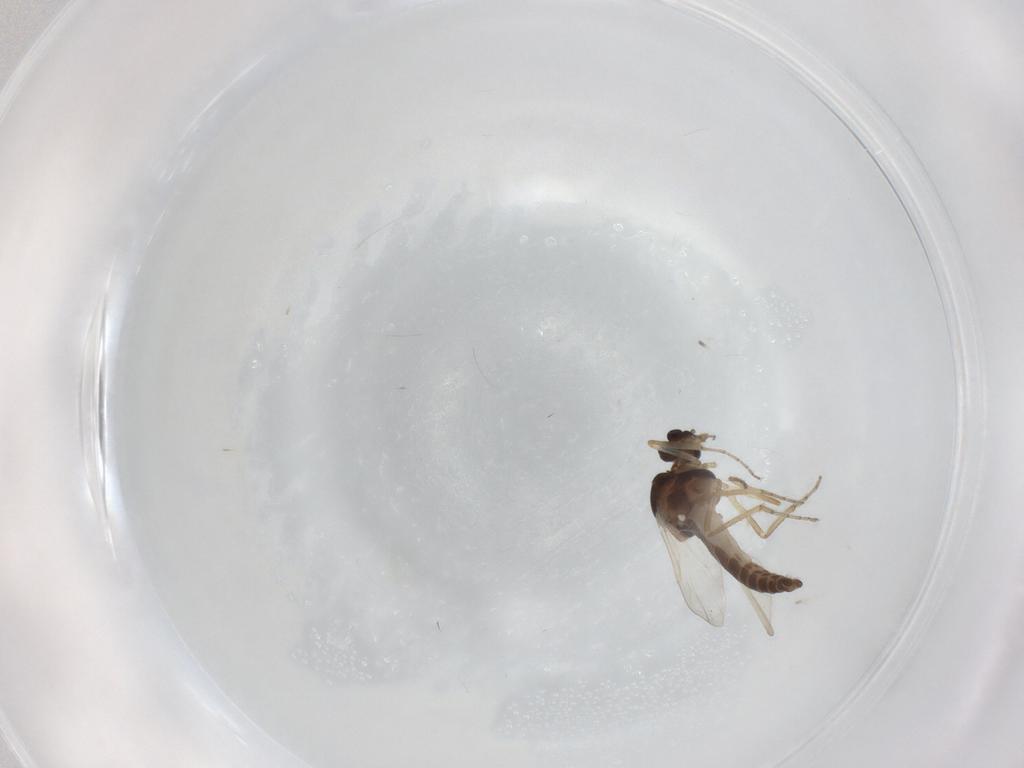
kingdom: Animalia
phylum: Arthropoda
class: Insecta
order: Diptera
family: Ceratopogonidae
